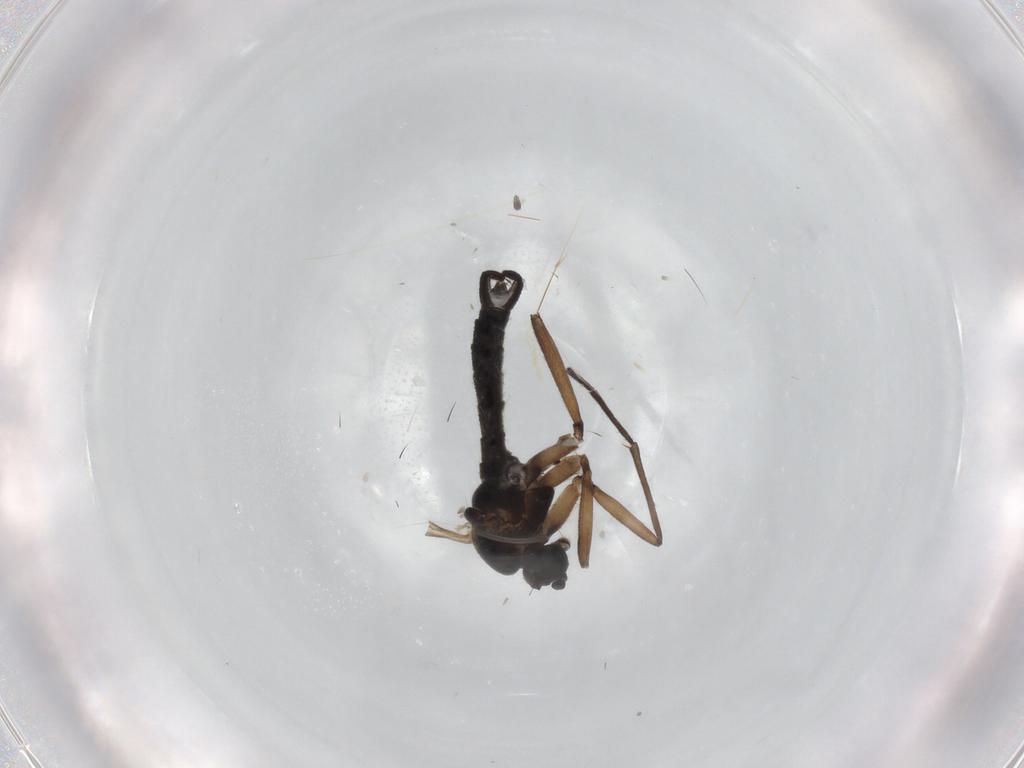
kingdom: Animalia
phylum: Arthropoda
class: Insecta
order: Diptera
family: Sciaridae
